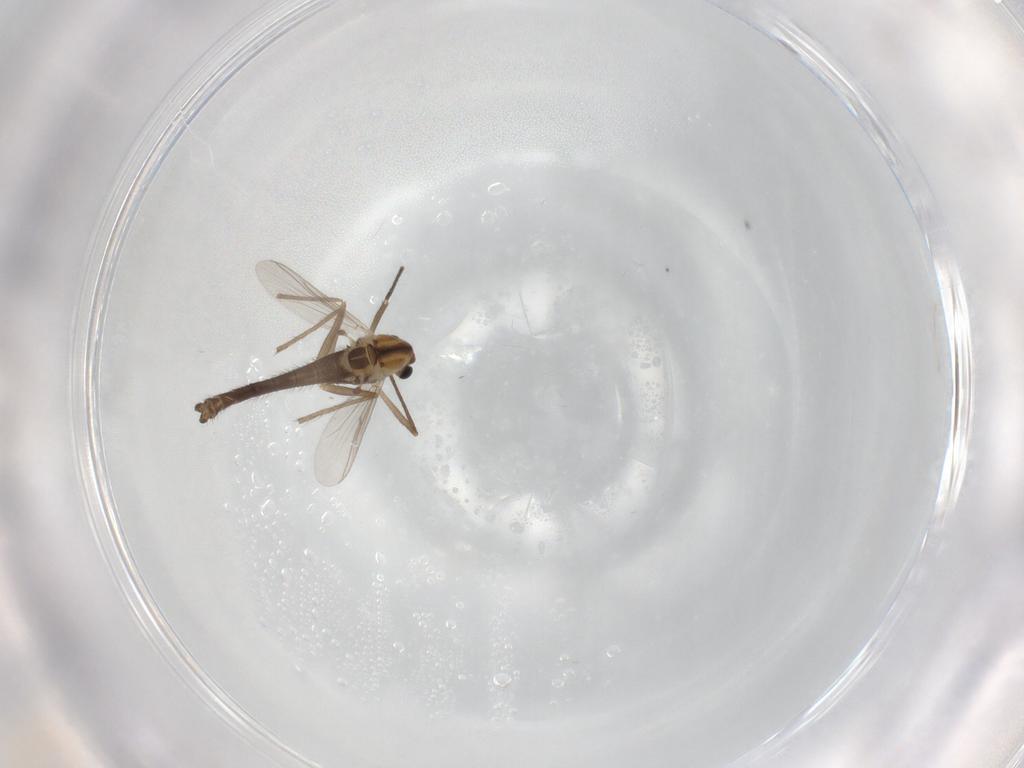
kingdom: Animalia
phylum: Arthropoda
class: Insecta
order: Diptera
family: Chironomidae
